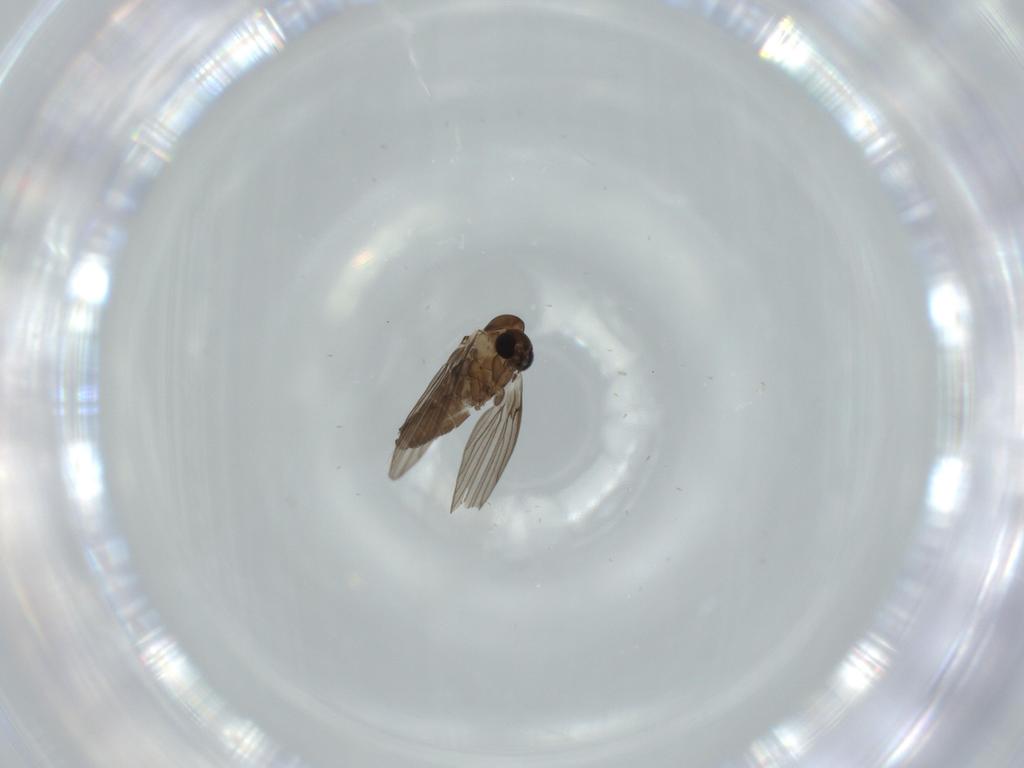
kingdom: Animalia
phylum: Arthropoda
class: Insecta
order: Diptera
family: Psychodidae
